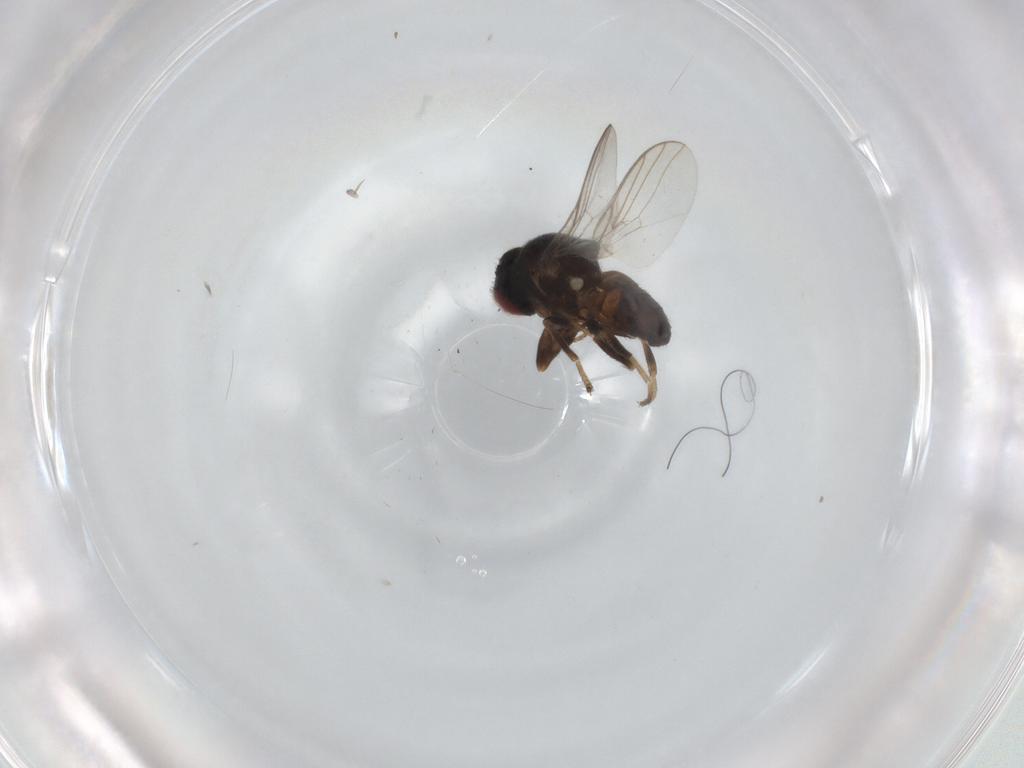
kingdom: Animalia
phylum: Arthropoda
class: Insecta
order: Diptera
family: Chloropidae
